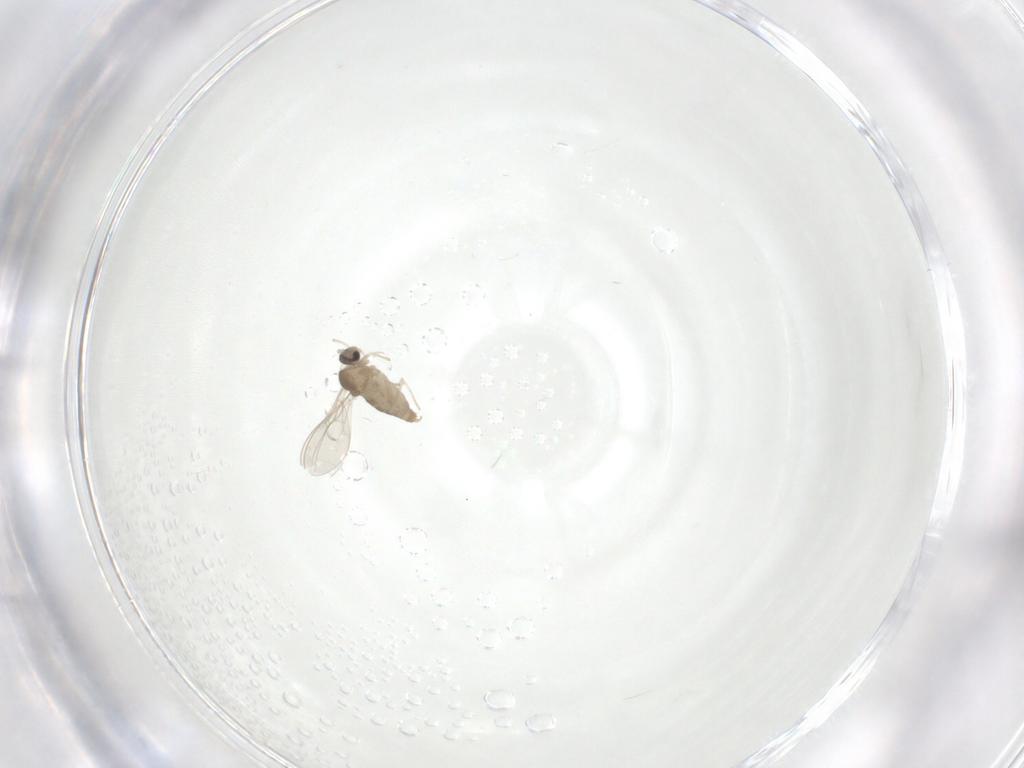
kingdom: Animalia
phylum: Arthropoda
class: Insecta
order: Diptera
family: Cecidomyiidae
